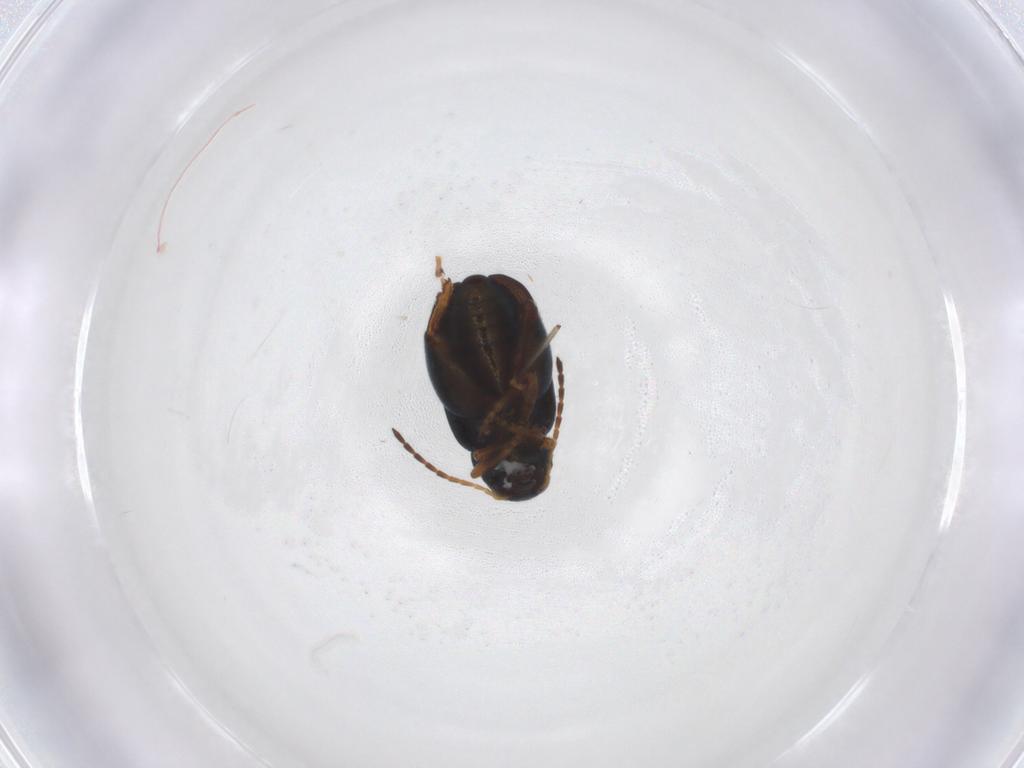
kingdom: Animalia
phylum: Arthropoda
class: Insecta
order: Coleoptera
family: Chrysomelidae
